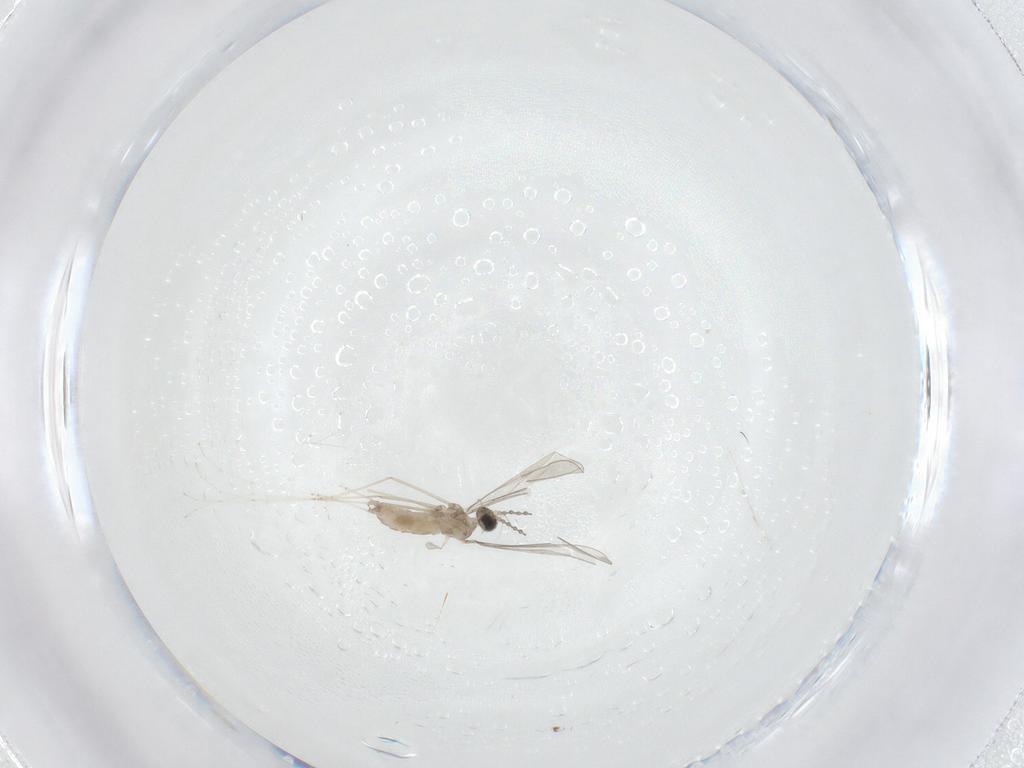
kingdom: Animalia
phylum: Arthropoda
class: Insecta
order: Diptera
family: Cecidomyiidae
